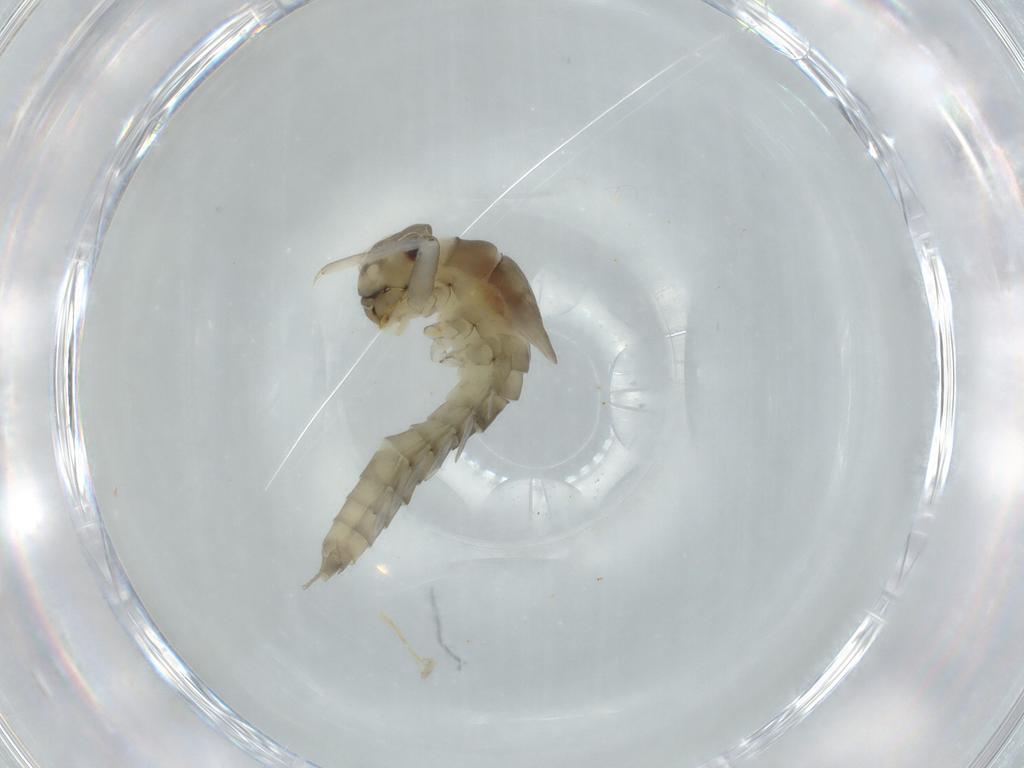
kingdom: Animalia
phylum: Arthropoda
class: Insecta
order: Ephemeroptera
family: Baetidae
